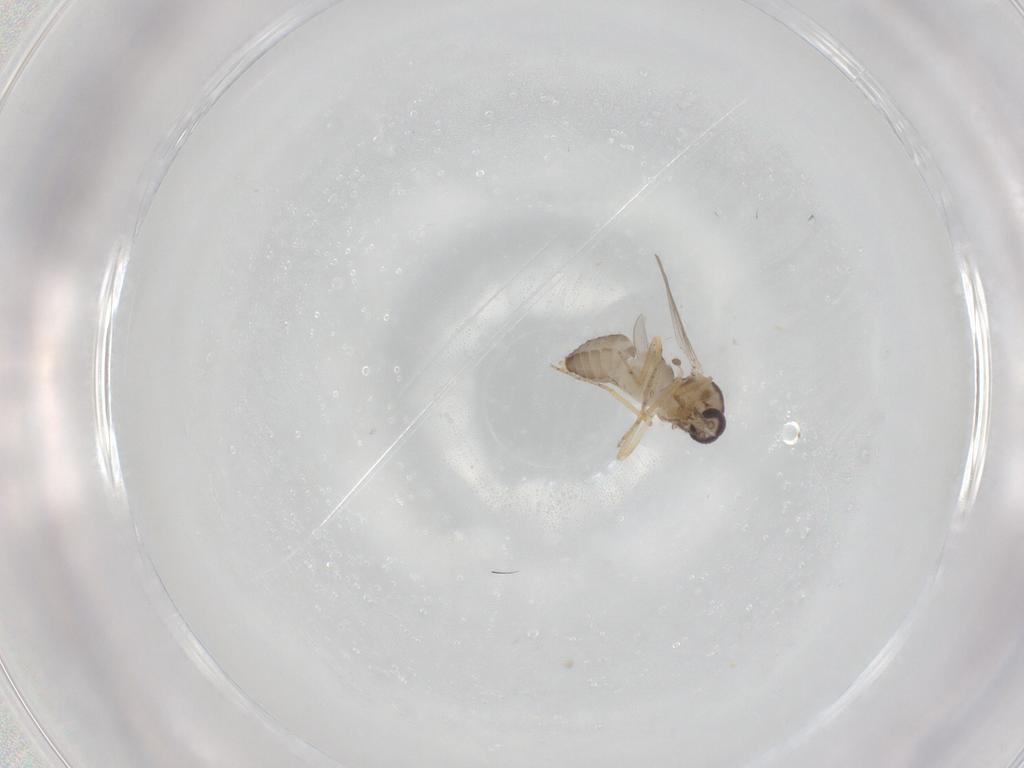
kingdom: Animalia
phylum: Arthropoda
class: Insecta
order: Diptera
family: Ceratopogonidae
